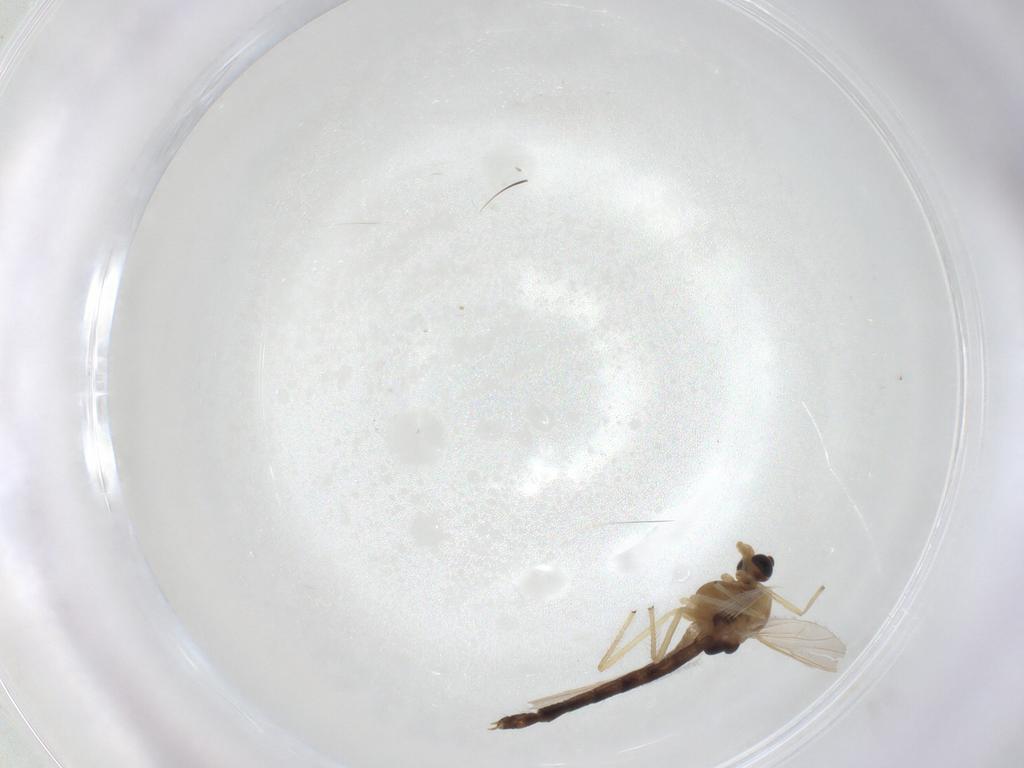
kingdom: Animalia
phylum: Arthropoda
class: Insecta
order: Diptera
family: Chironomidae
